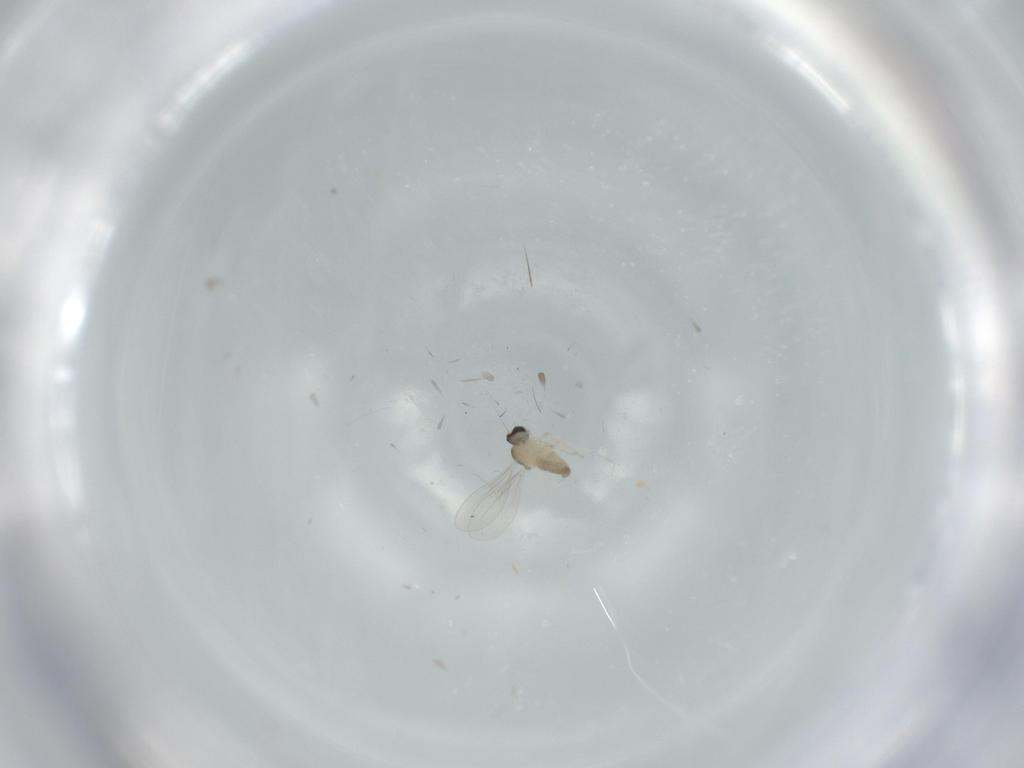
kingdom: Animalia
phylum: Arthropoda
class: Insecta
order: Diptera
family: Cecidomyiidae
